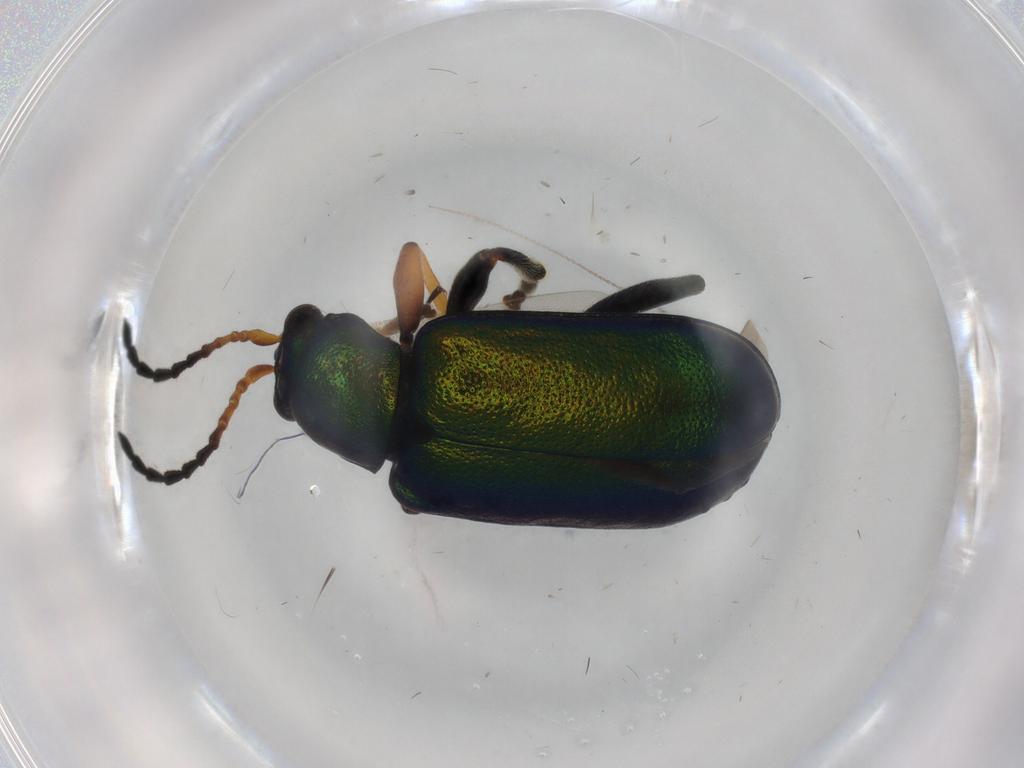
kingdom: Animalia
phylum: Arthropoda
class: Insecta
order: Coleoptera
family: Chrysomelidae
